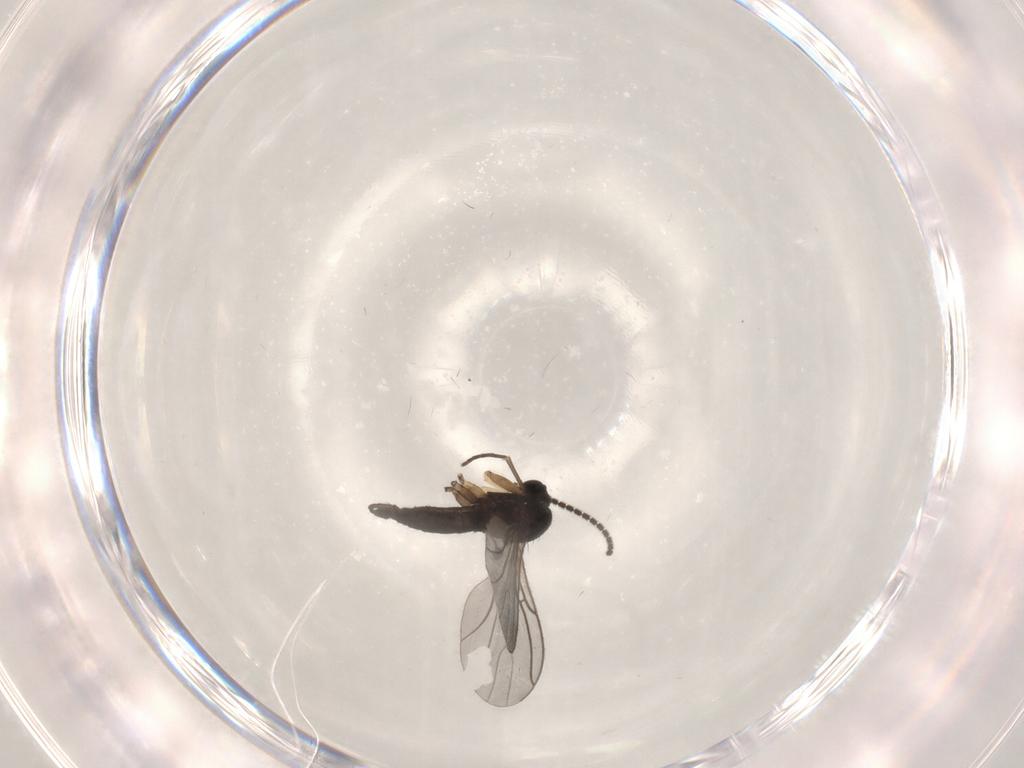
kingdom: Animalia
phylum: Arthropoda
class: Insecta
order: Diptera
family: Sciaridae
